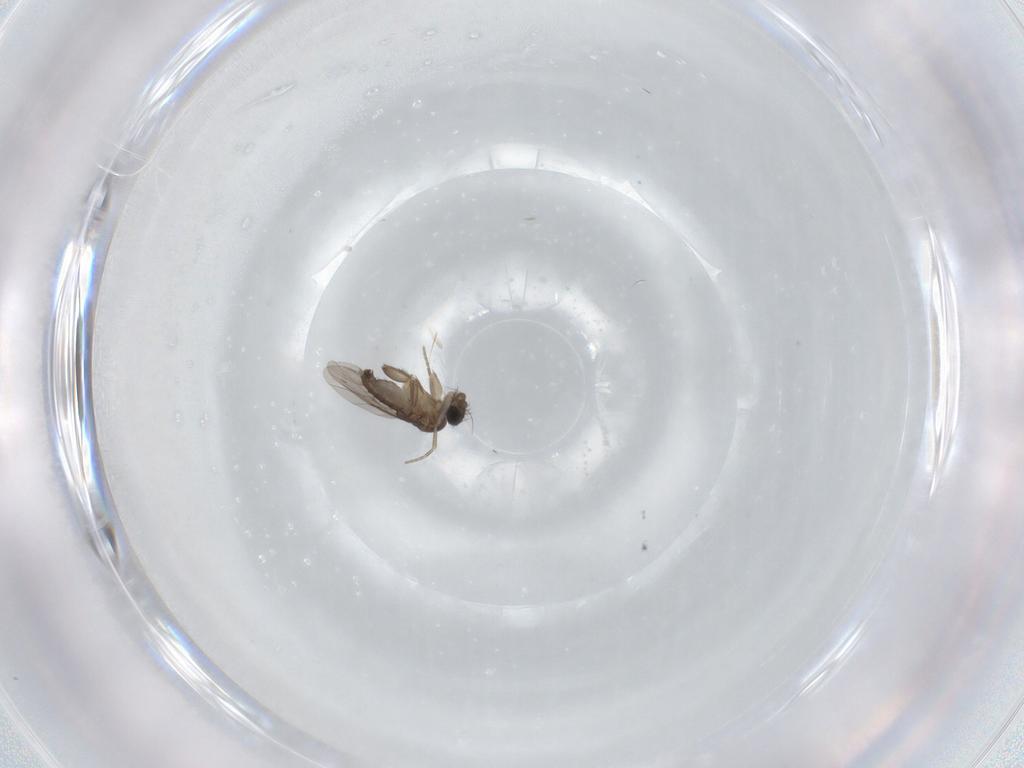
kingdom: Animalia
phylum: Arthropoda
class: Insecta
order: Diptera
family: Phoridae
